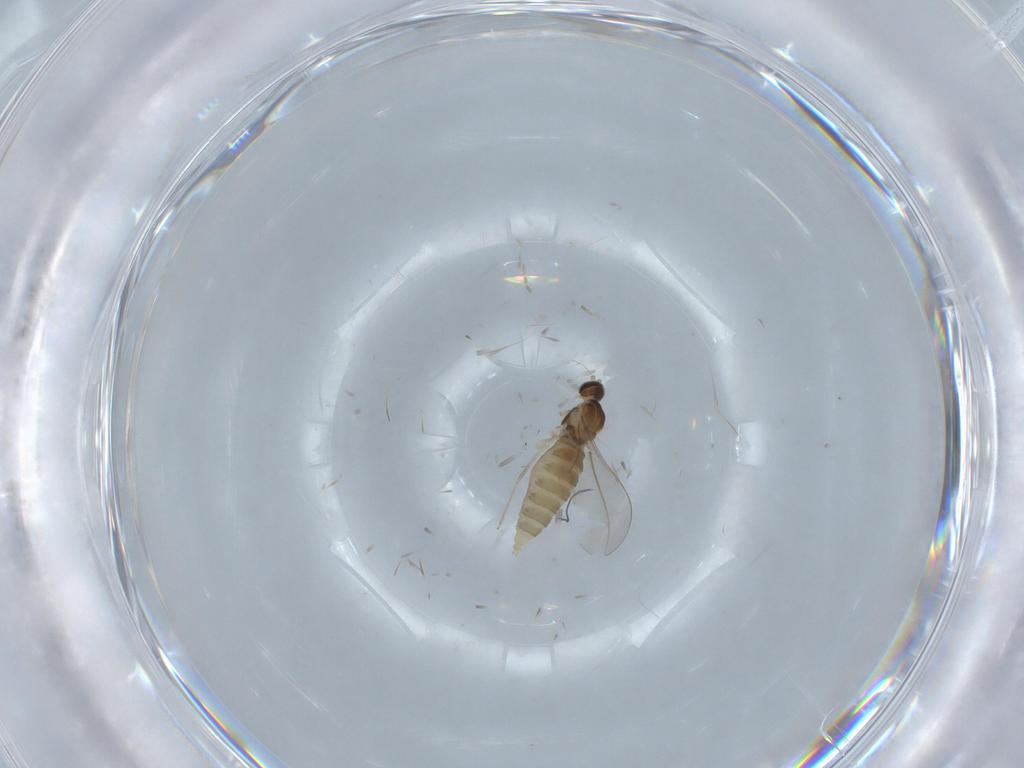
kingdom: Animalia
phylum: Arthropoda
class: Insecta
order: Diptera
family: Cecidomyiidae
